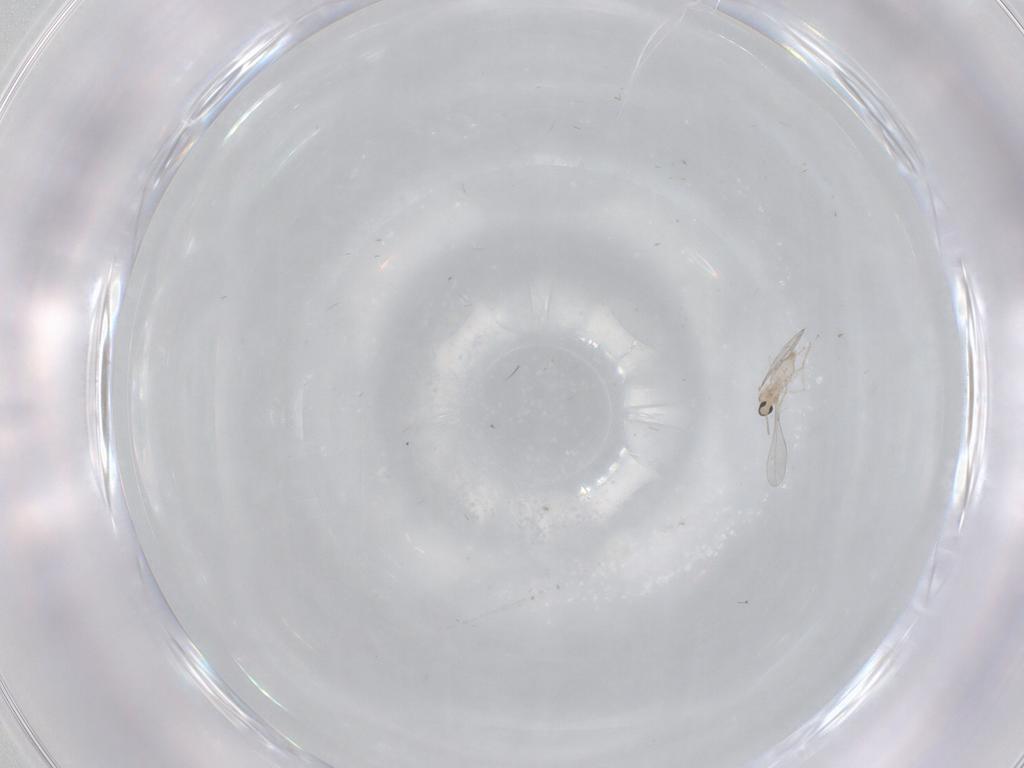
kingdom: Animalia
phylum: Arthropoda
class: Insecta
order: Diptera
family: Cecidomyiidae
